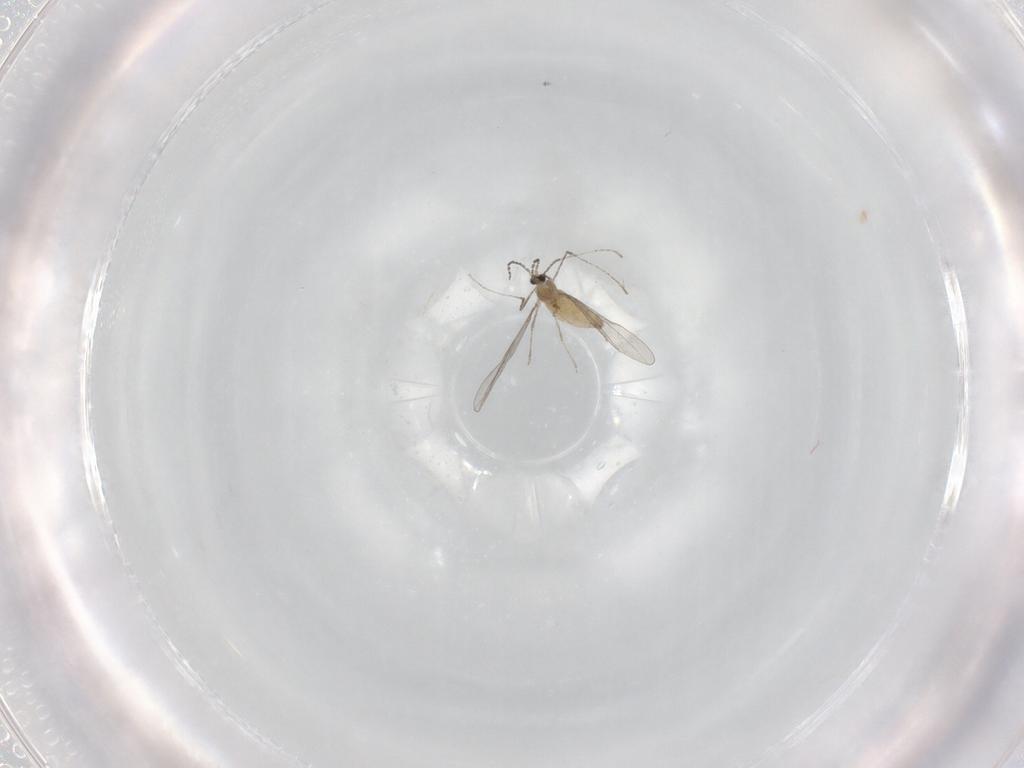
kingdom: Animalia
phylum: Arthropoda
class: Insecta
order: Diptera
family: Cecidomyiidae
